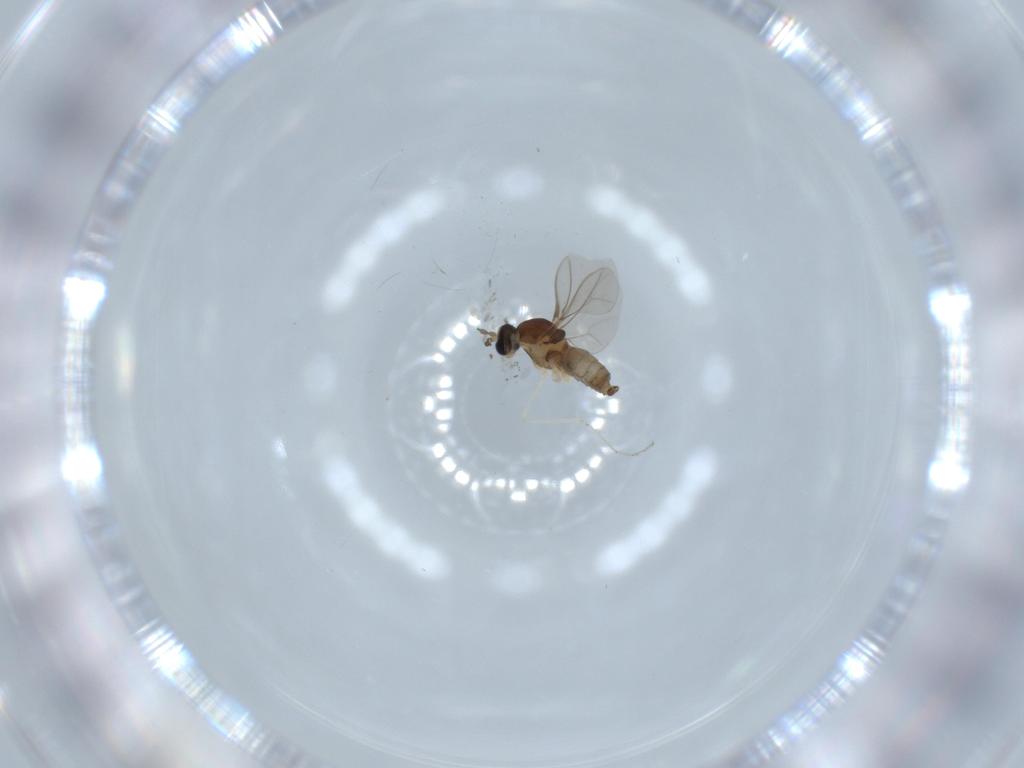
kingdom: Animalia
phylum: Arthropoda
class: Insecta
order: Diptera
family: Cecidomyiidae
